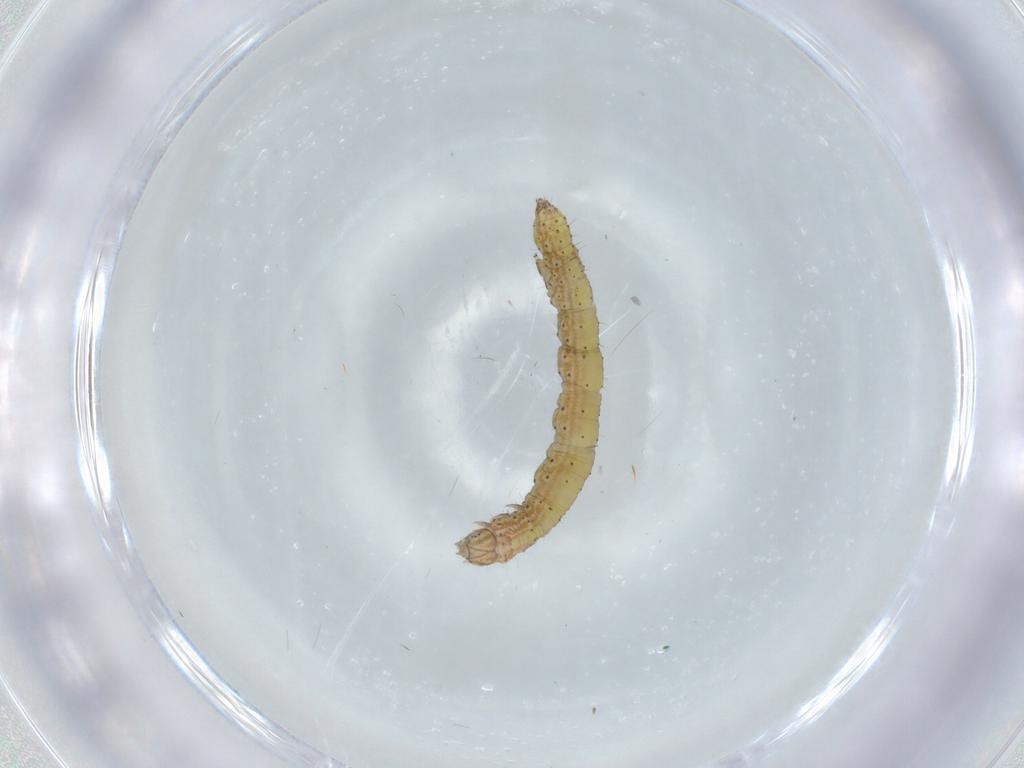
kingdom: Animalia
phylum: Arthropoda
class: Insecta
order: Lepidoptera
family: Erebidae
